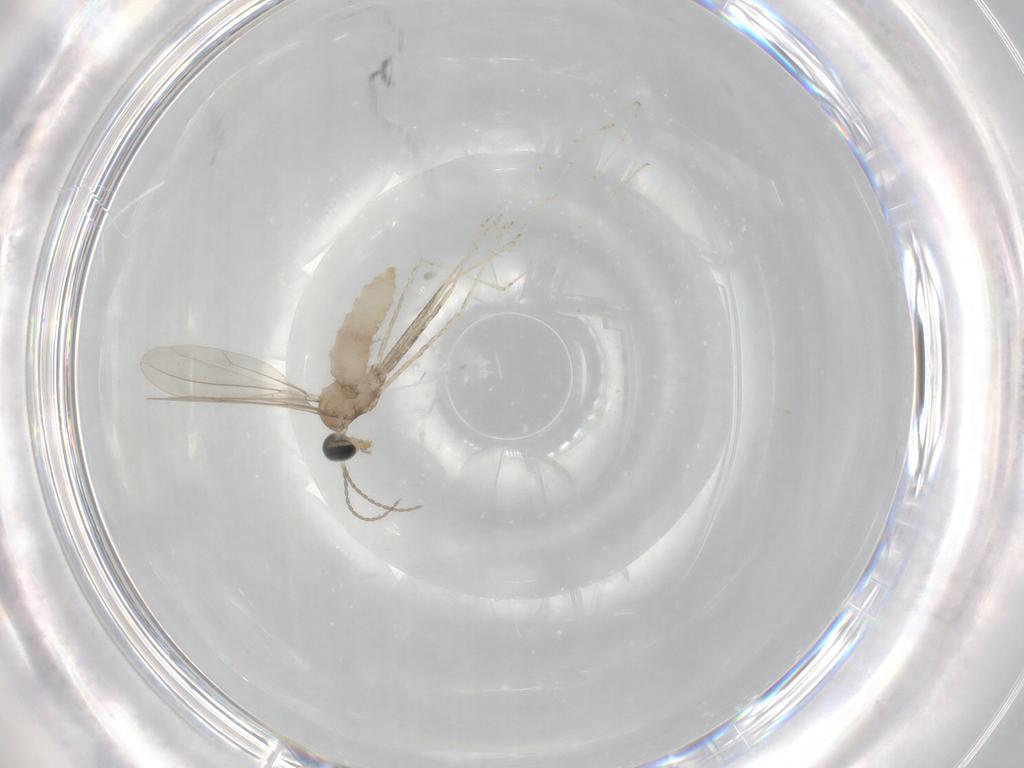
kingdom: Animalia
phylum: Arthropoda
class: Insecta
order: Diptera
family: Cecidomyiidae
